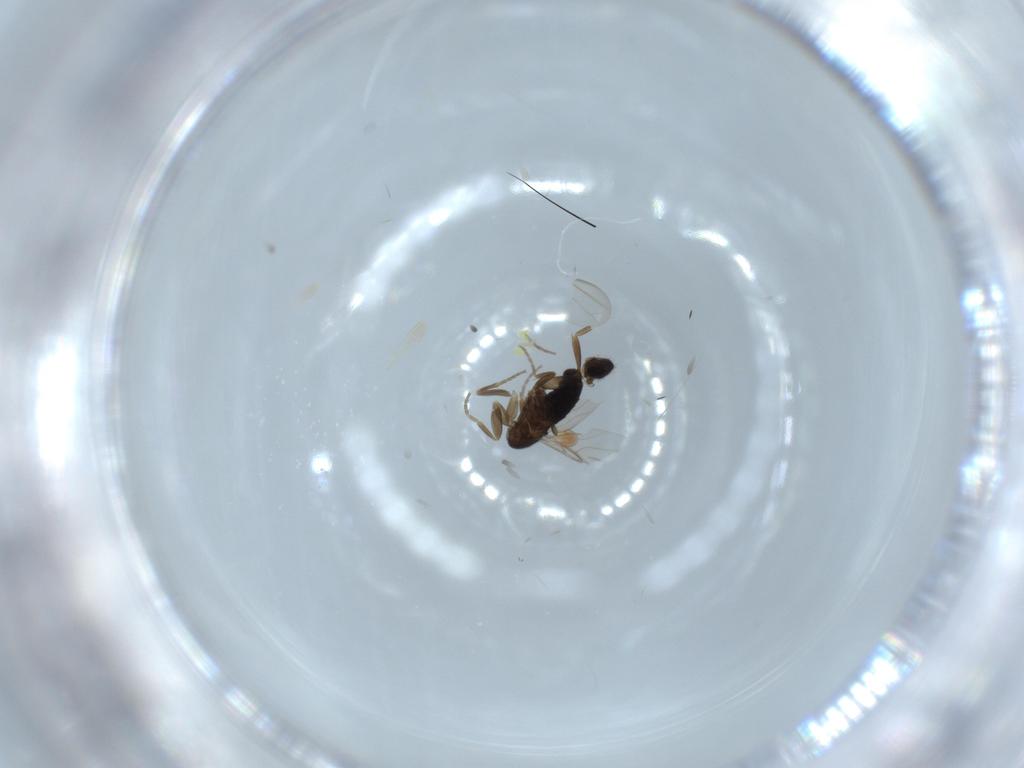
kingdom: Animalia
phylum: Arthropoda
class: Insecta
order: Diptera
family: Phoridae
